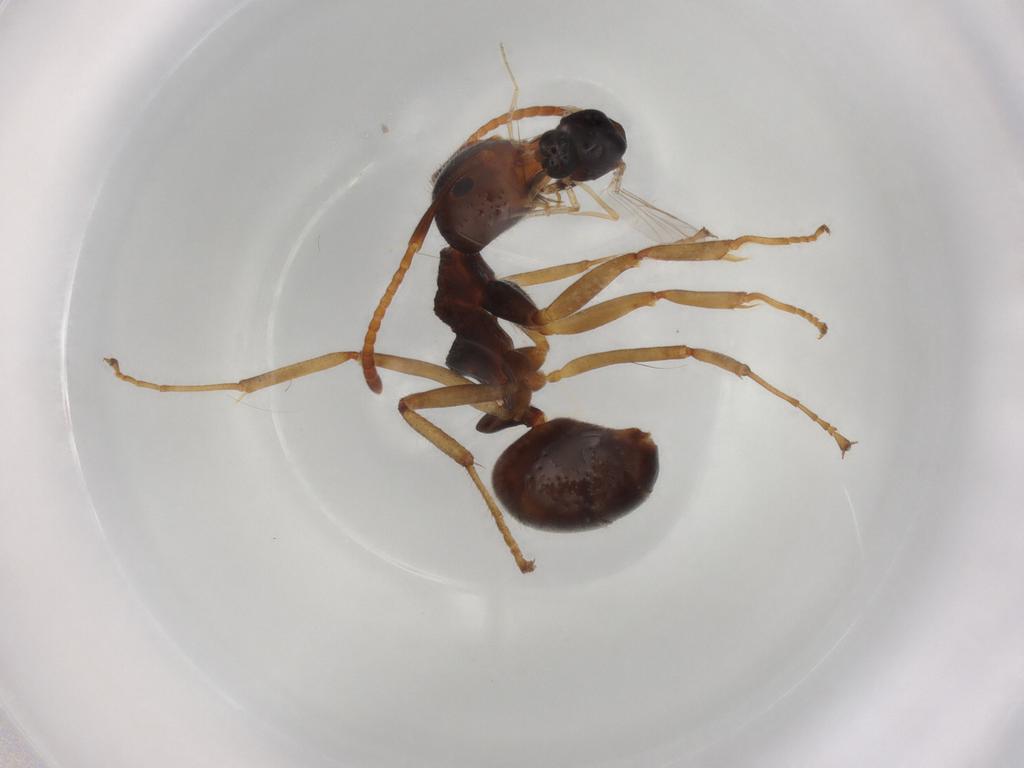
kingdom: Animalia
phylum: Arthropoda
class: Insecta
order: Hymenoptera
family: Formicidae
